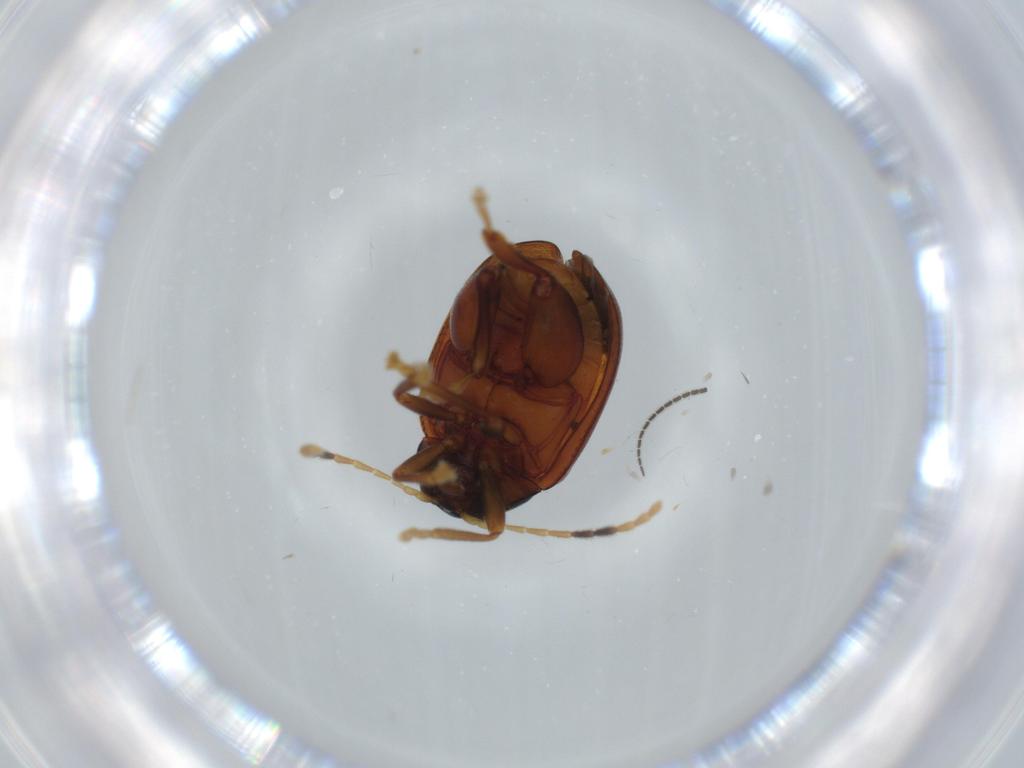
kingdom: Animalia
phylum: Arthropoda
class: Insecta
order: Coleoptera
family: Chrysomelidae
